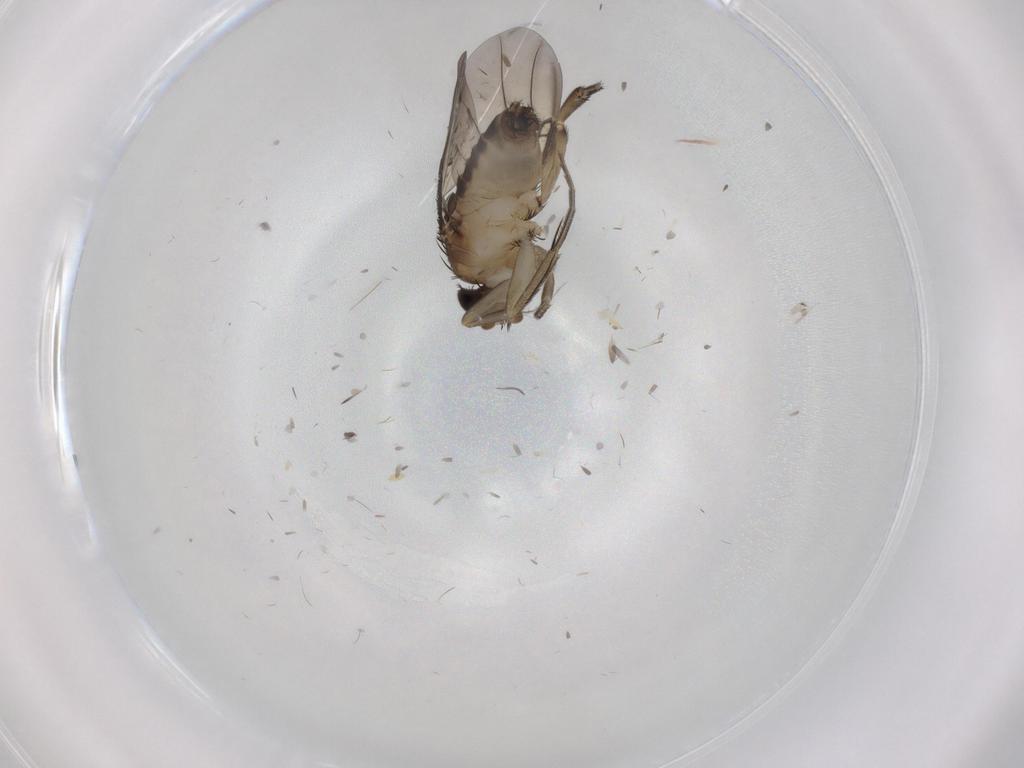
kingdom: Animalia
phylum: Arthropoda
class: Insecta
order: Diptera
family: Phoridae
